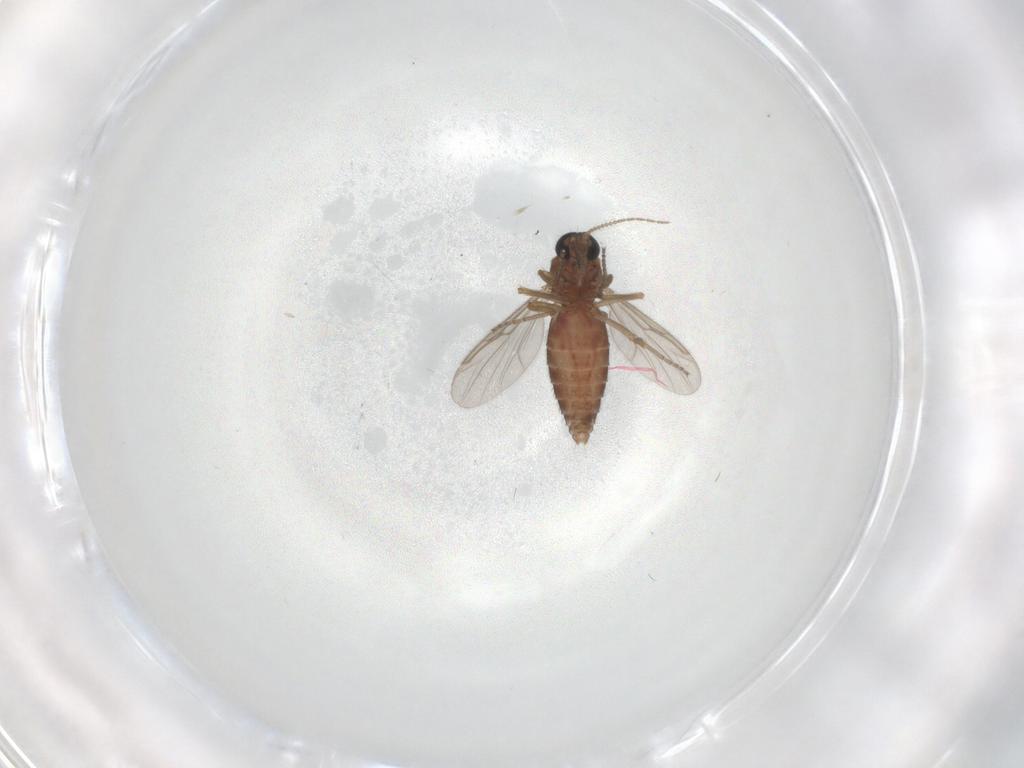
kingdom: Animalia
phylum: Arthropoda
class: Insecta
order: Diptera
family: Ceratopogonidae
